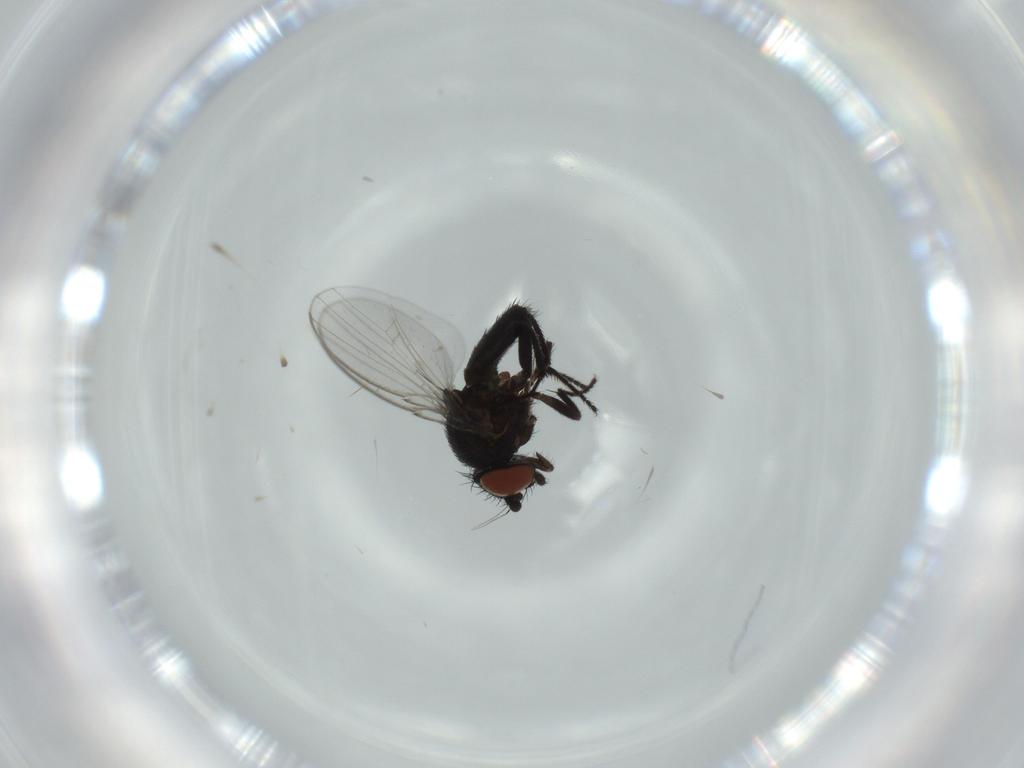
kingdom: Animalia
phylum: Arthropoda
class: Insecta
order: Diptera
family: Milichiidae
